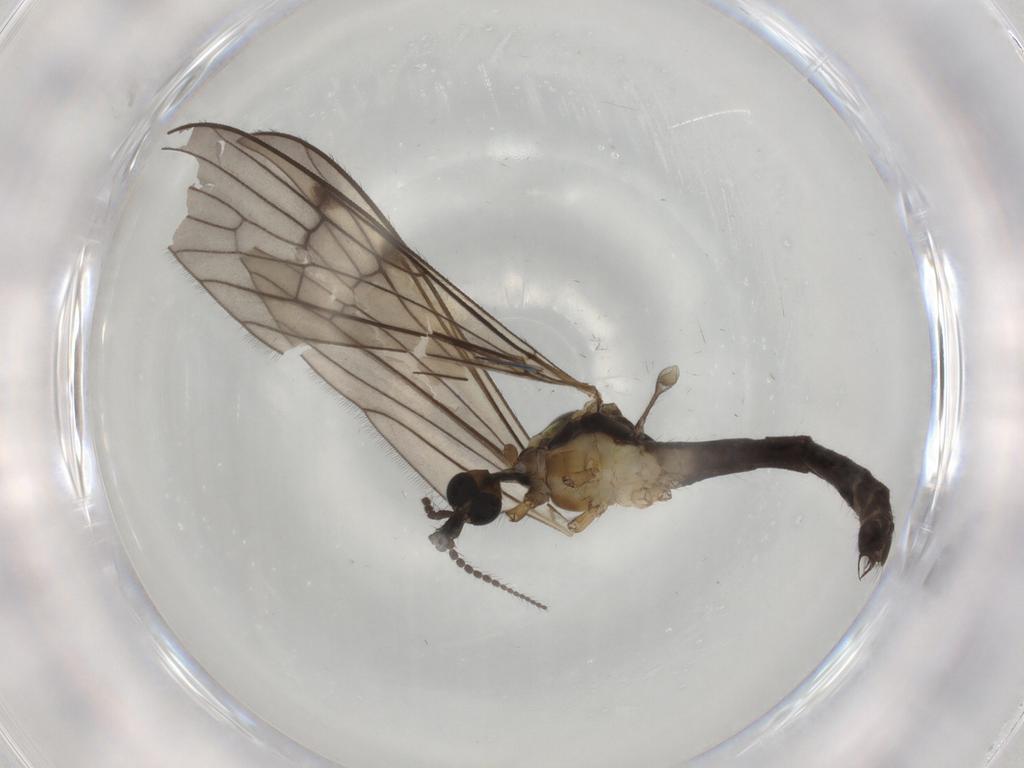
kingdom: Animalia
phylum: Arthropoda
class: Insecta
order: Diptera
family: Limoniidae
